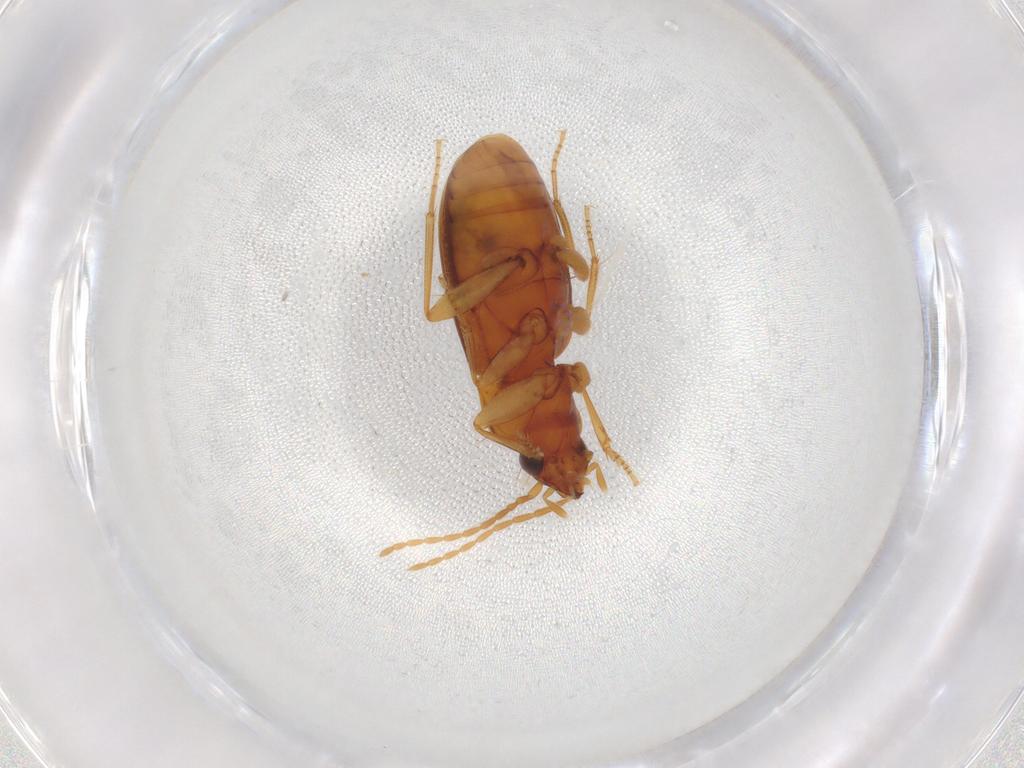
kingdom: Animalia
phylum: Arthropoda
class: Insecta
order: Coleoptera
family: Carabidae
